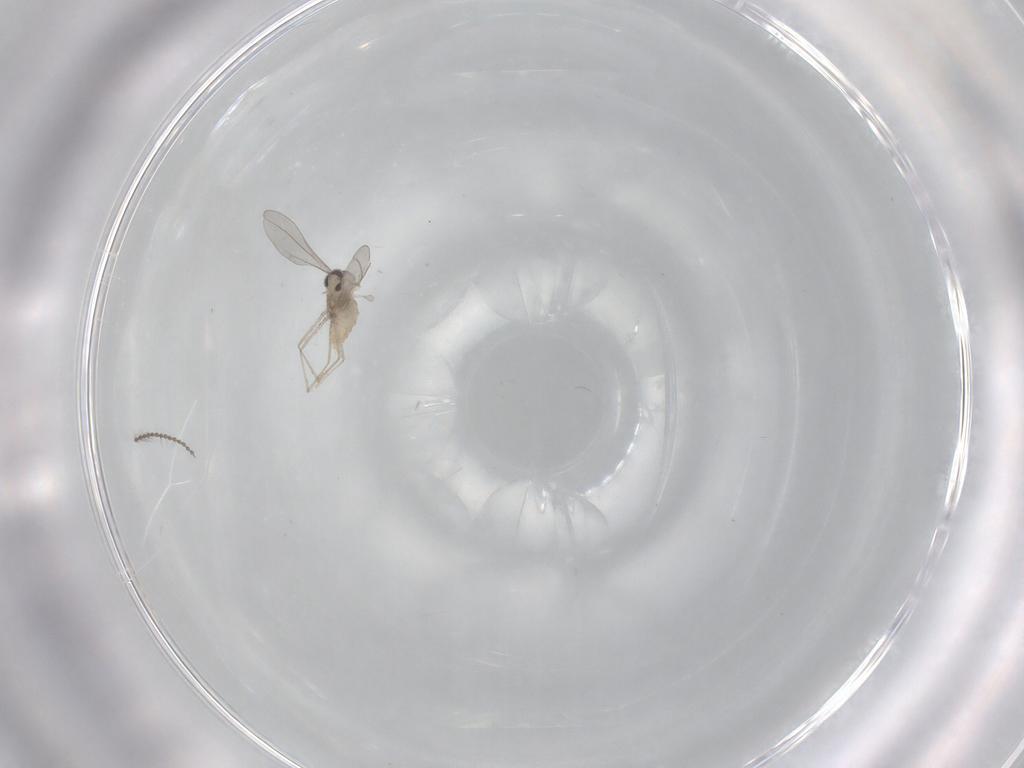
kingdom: Animalia
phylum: Arthropoda
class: Insecta
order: Diptera
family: Cecidomyiidae
